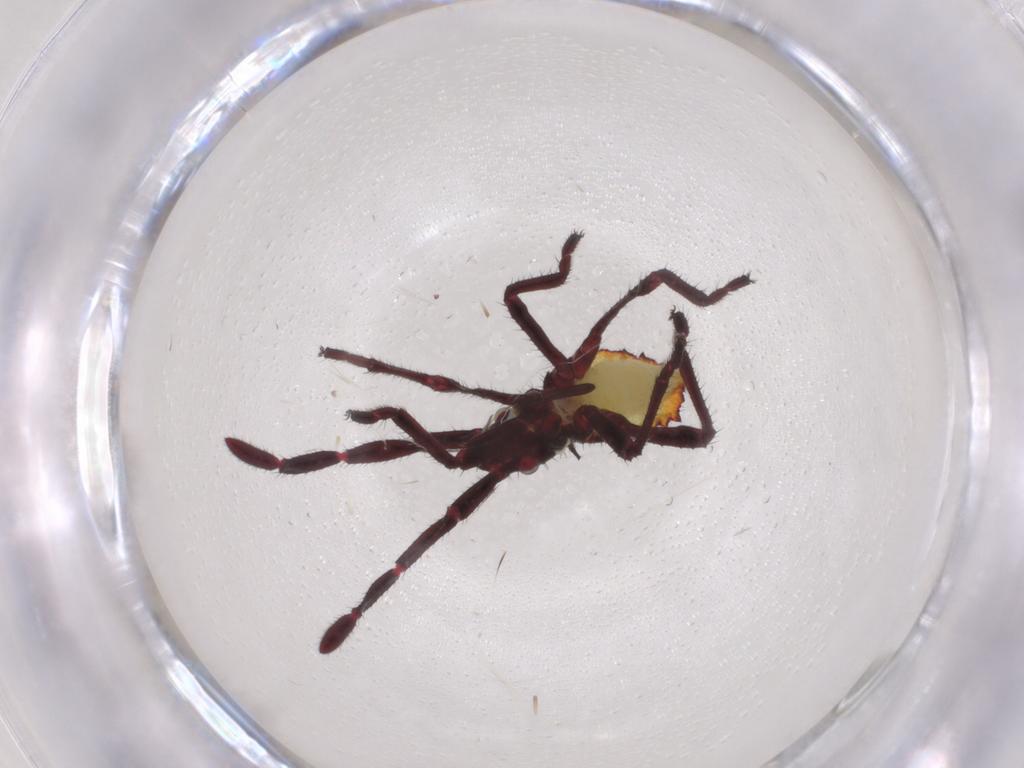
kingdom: Animalia
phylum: Arthropoda
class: Insecta
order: Hemiptera
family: Coreidae
